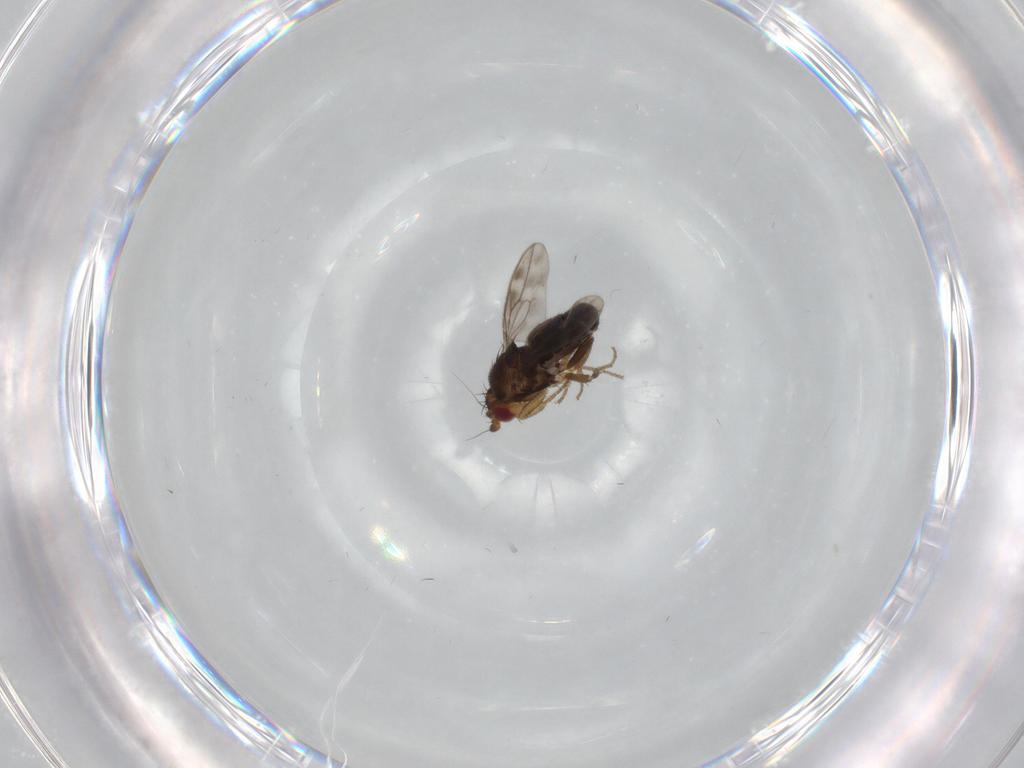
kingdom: Animalia
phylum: Arthropoda
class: Insecta
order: Diptera
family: Sphaeroceridae
